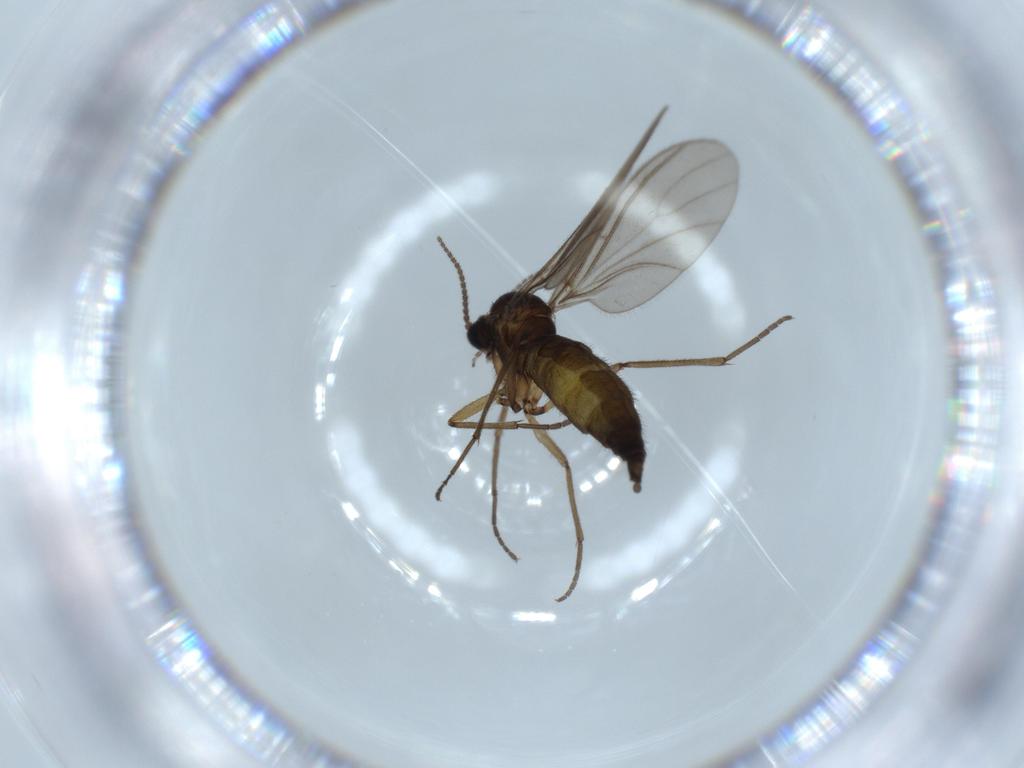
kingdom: Animalia
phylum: Arthropoda
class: Insecta
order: Diptera
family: Sciaridae
